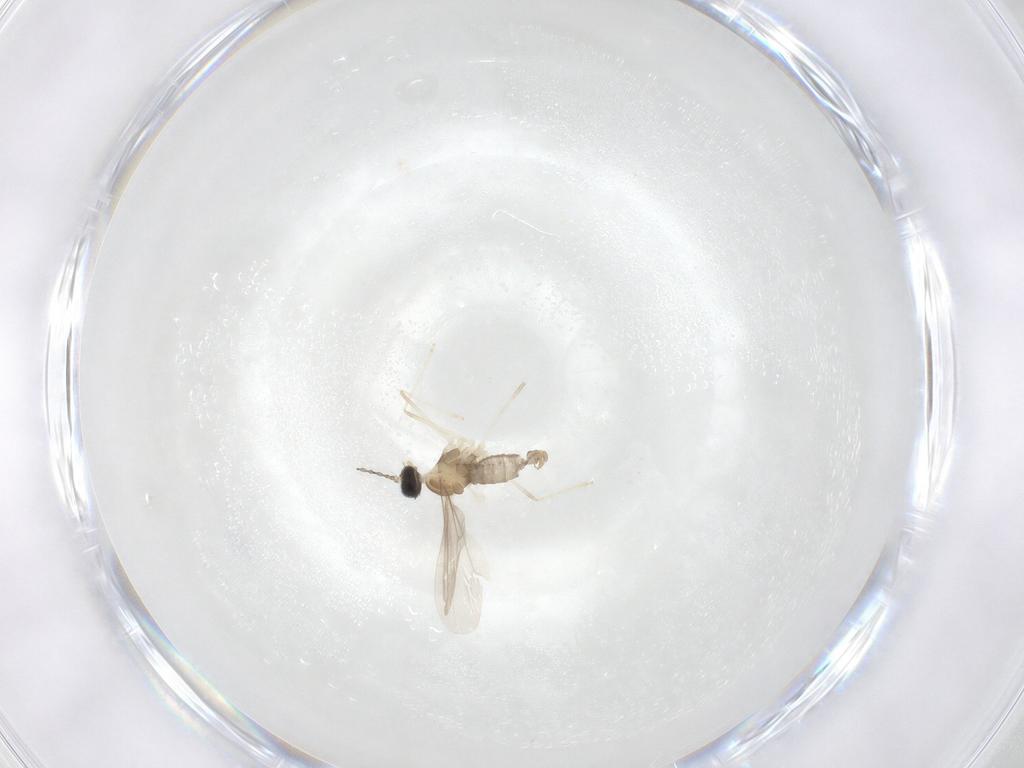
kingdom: Animalia
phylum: Arthropoda
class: Insecta
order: Diptera
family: Cecidomyiidae
